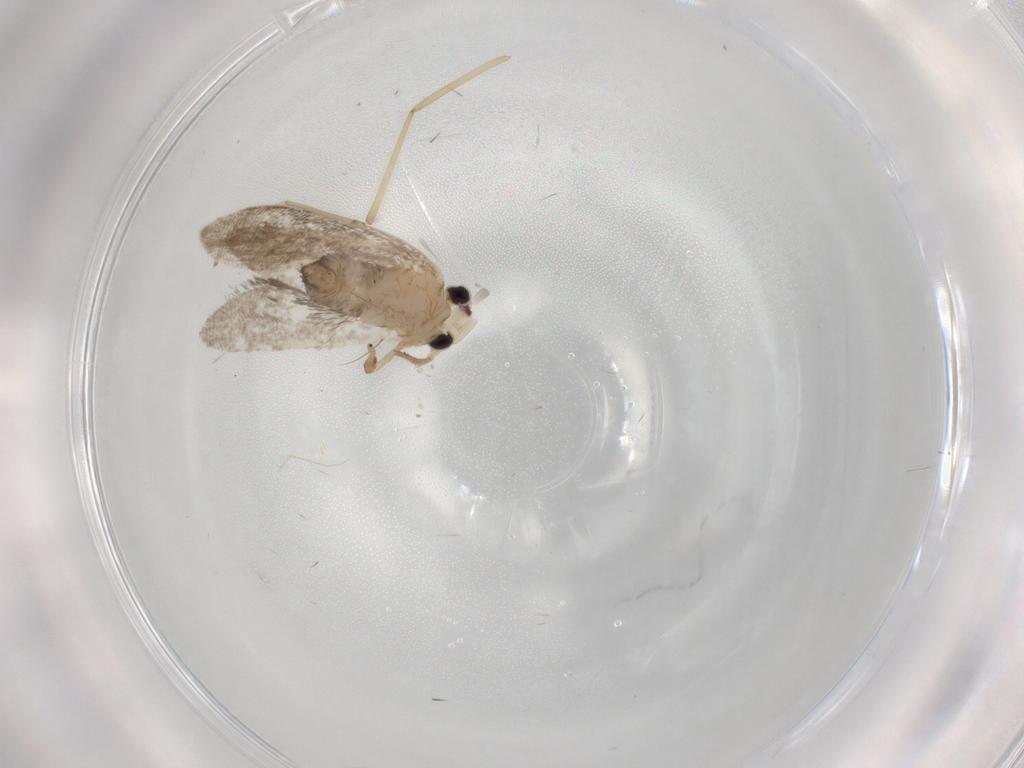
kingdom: Animalia
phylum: Arthropoda
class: Insecta
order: Lepidoptera
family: Psychidae
